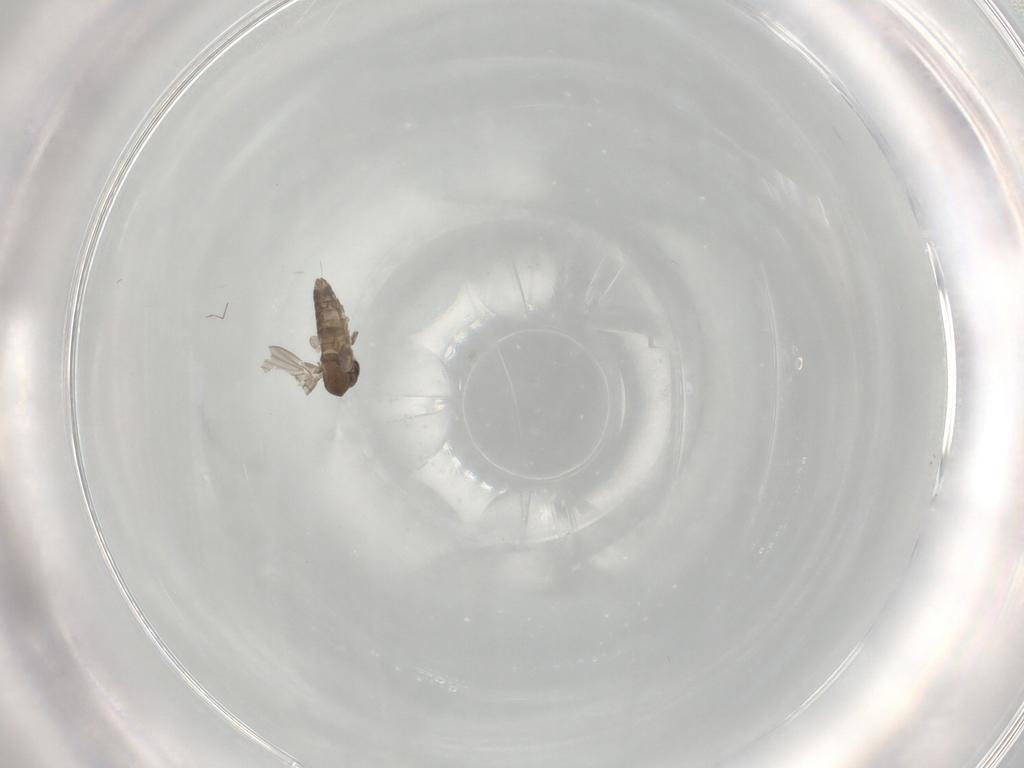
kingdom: Animalia
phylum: Arthropoda
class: Insecta
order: Diptera
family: Psychodidae
